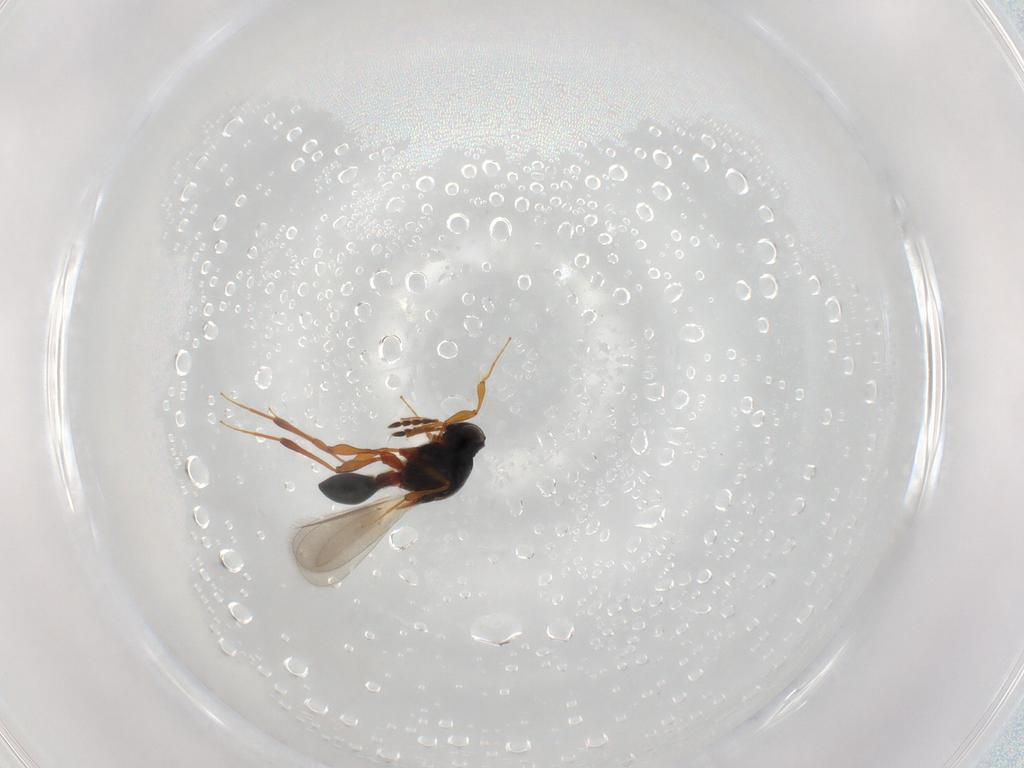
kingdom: Animalia
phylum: Arthropoda
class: Insecta
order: Hymenoptera
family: Platygastridae
